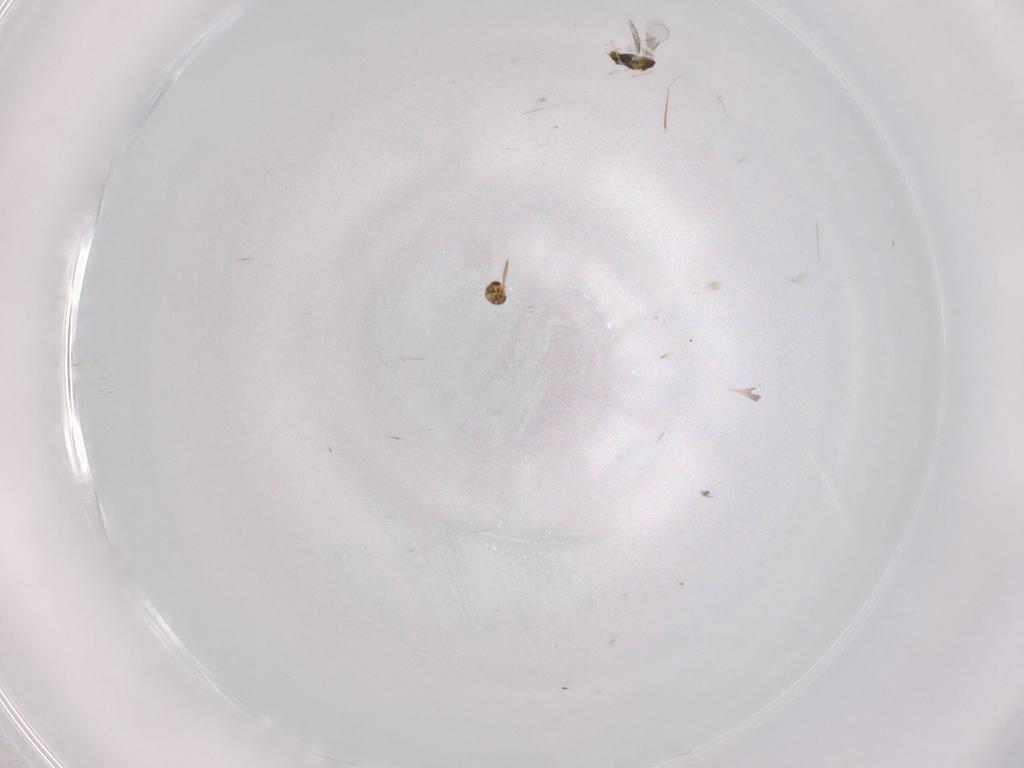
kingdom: Animalia
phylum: Arthropoda
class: Insecta
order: Hymenoptera
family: Aphelinidae
